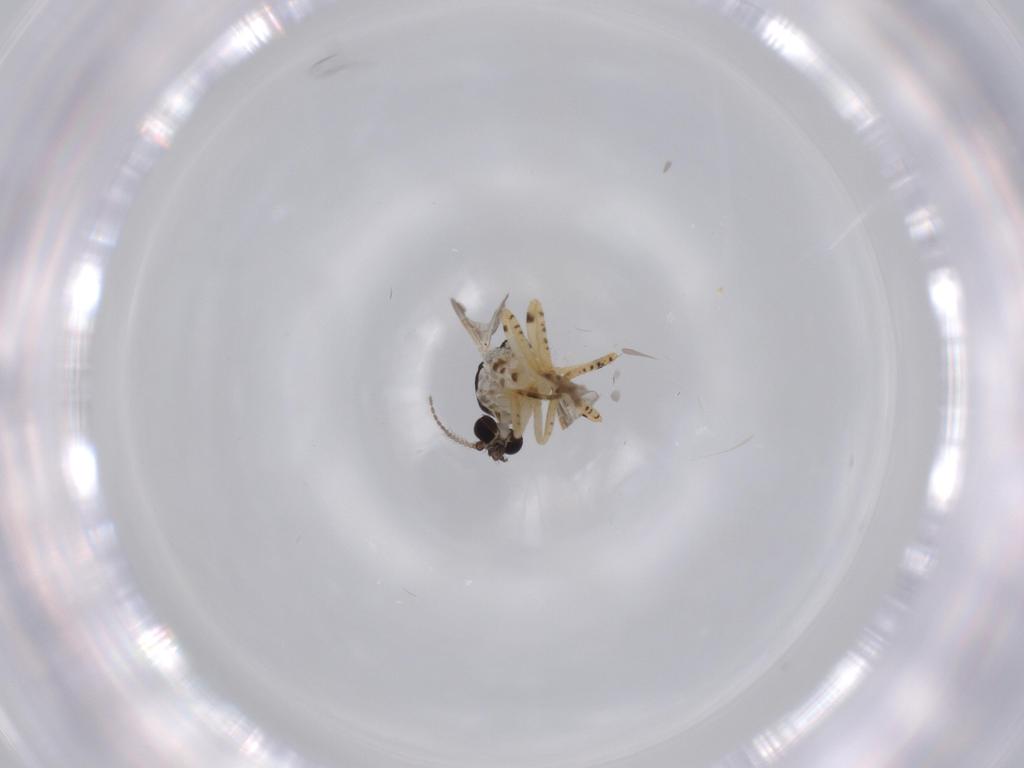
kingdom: Animalia
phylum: Arthropoda
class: Insecta
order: Diptera
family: Ceratopogonidae
